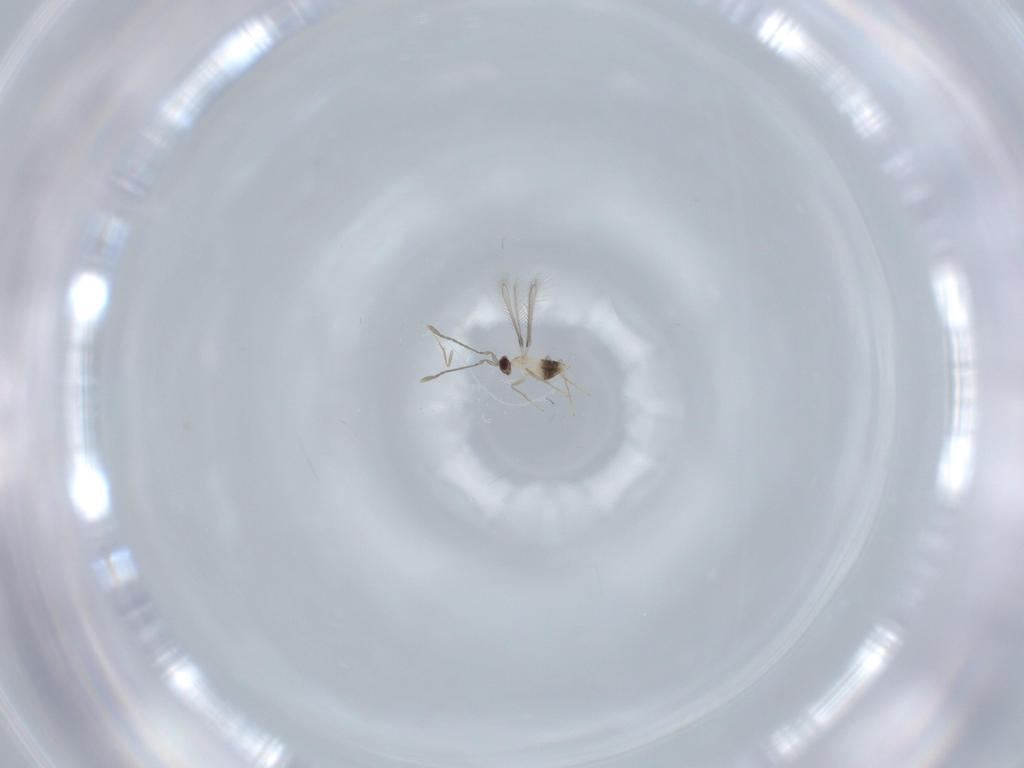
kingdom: Animalia
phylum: Arthropoda
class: Insecta
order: Hymenoptera
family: Mymaridae
